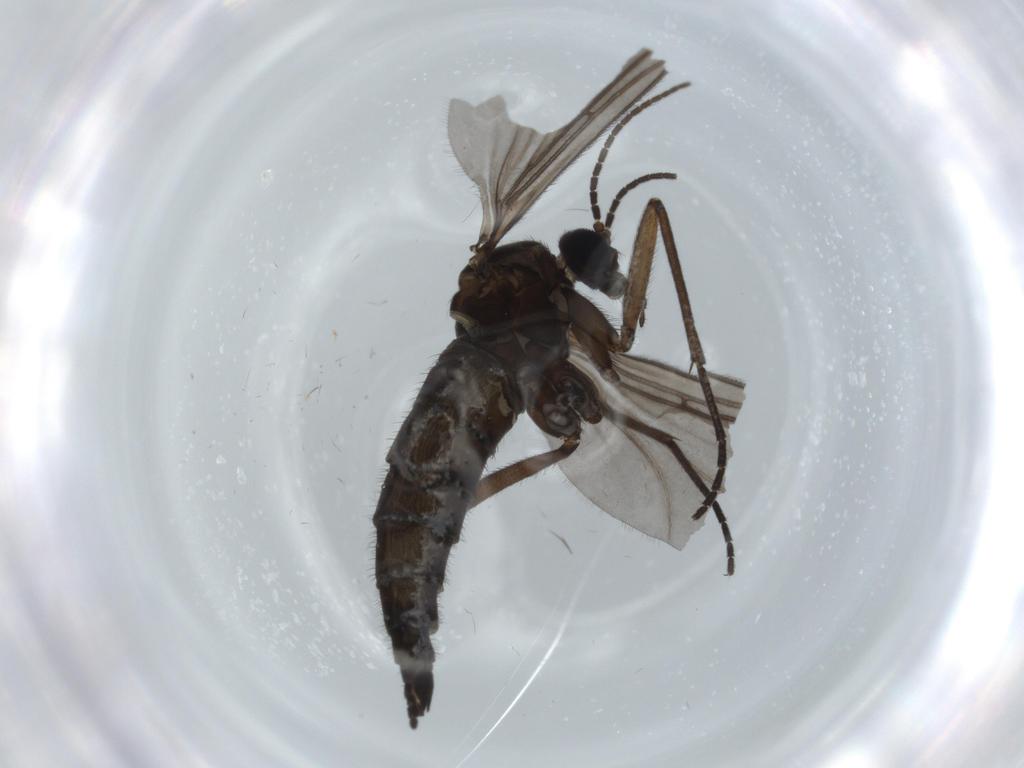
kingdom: Animalia
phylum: Arthropoda
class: Insecta
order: Diptera
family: Sciaridae
